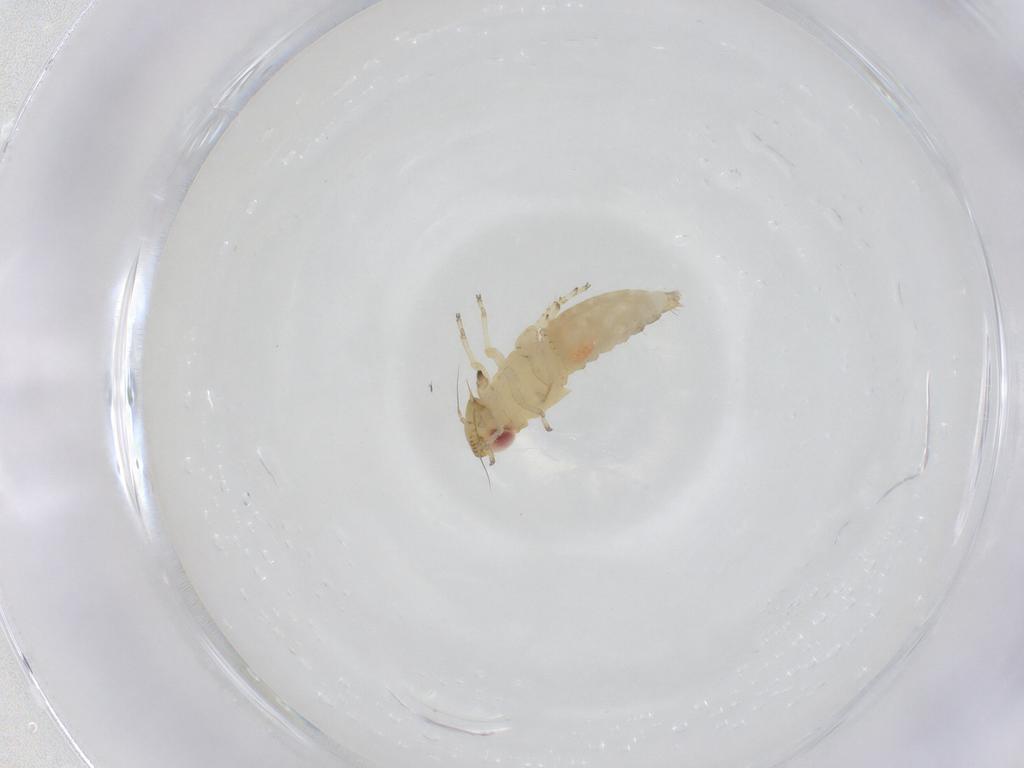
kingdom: Animalia
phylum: Arthropoda
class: Insecta
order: Hemiptera
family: Cicadellidae
